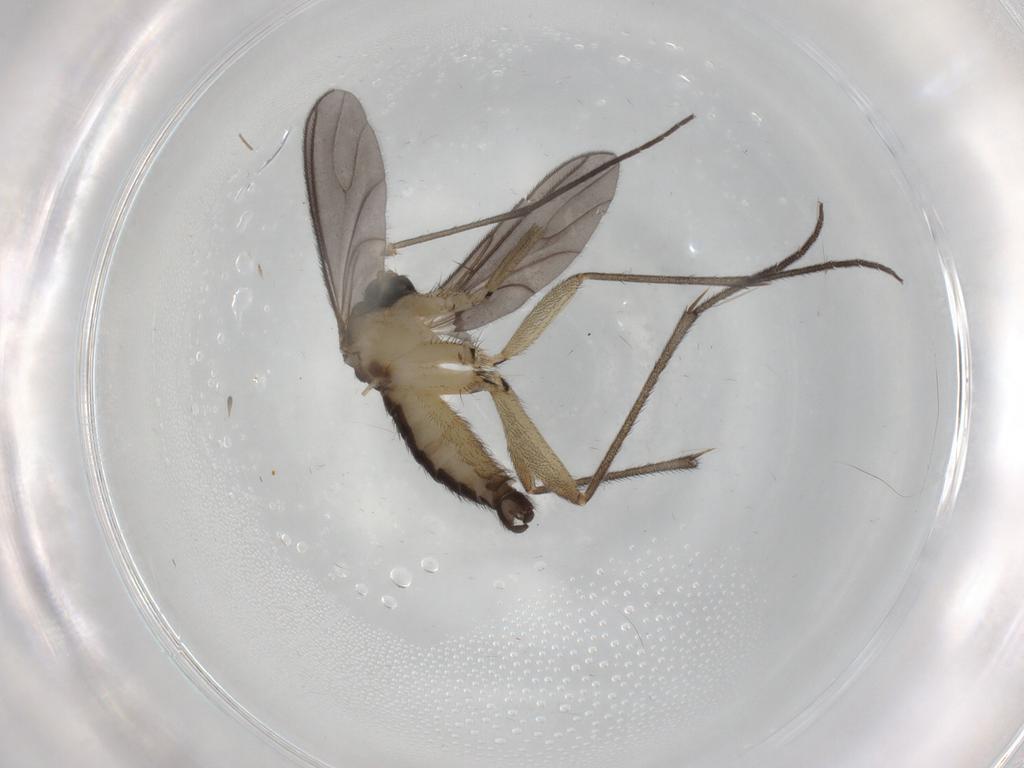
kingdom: Animalia
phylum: Arthropoda
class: Insecta
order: Diptera
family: Sciaridae
